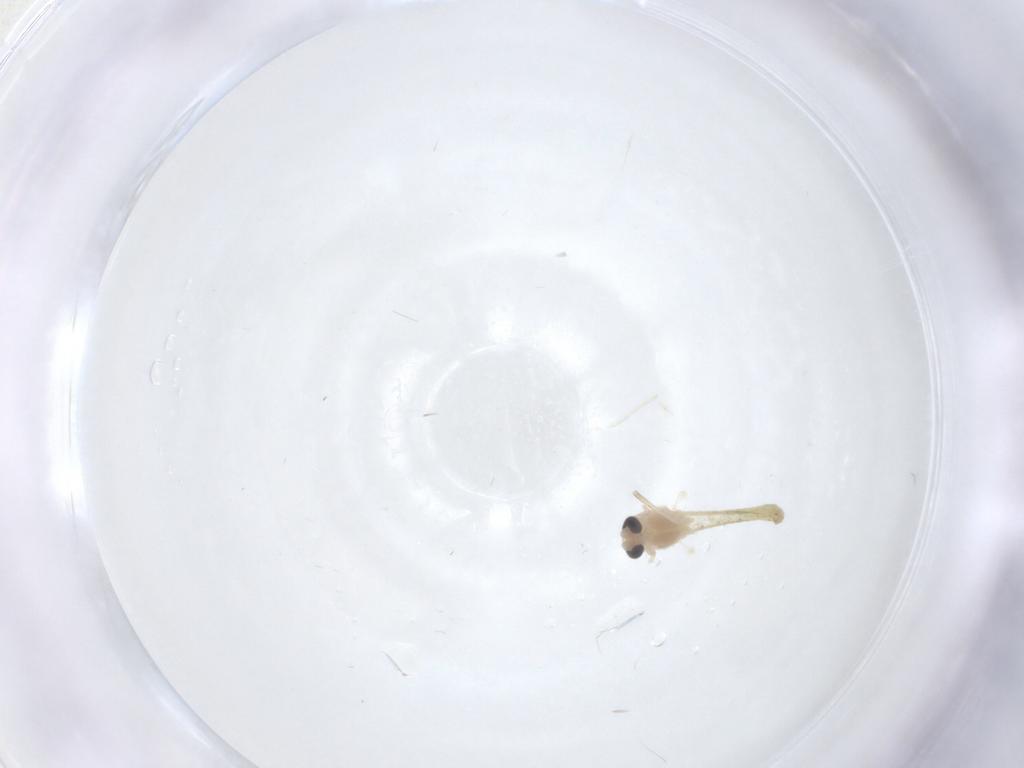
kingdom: Animalia
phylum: Arthropoda
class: Insecta
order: Diptera
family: Chironomidae
